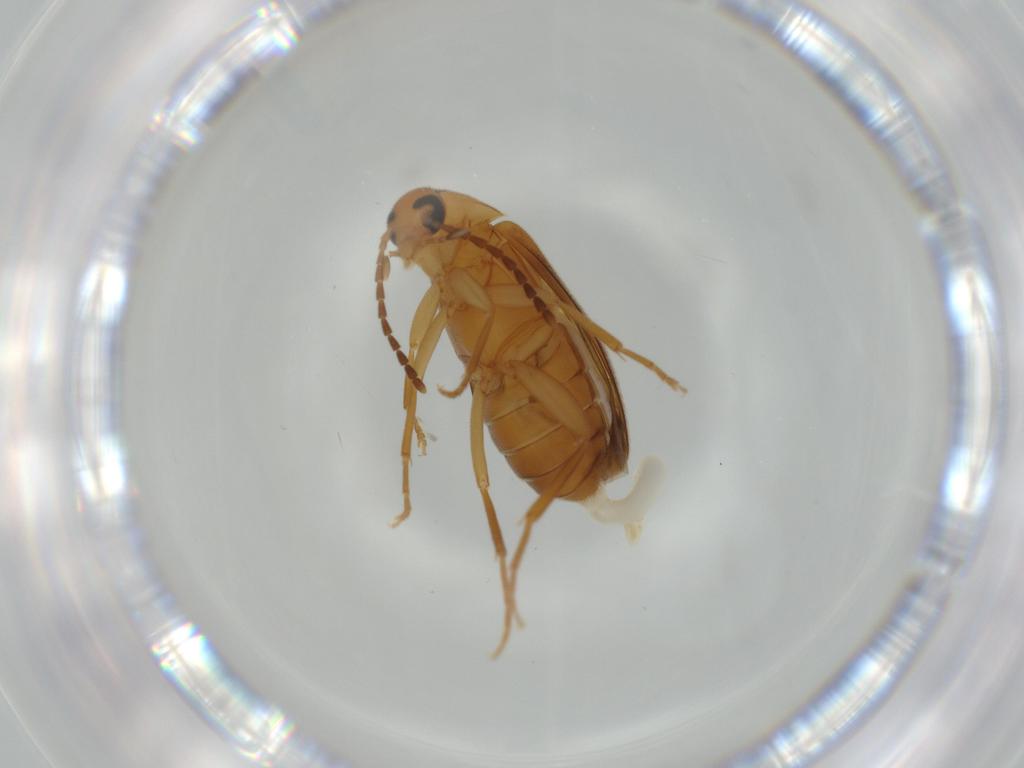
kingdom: Animalia
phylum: Arthropoda
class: Insecta
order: Coleoptera
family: Scraptiidae
